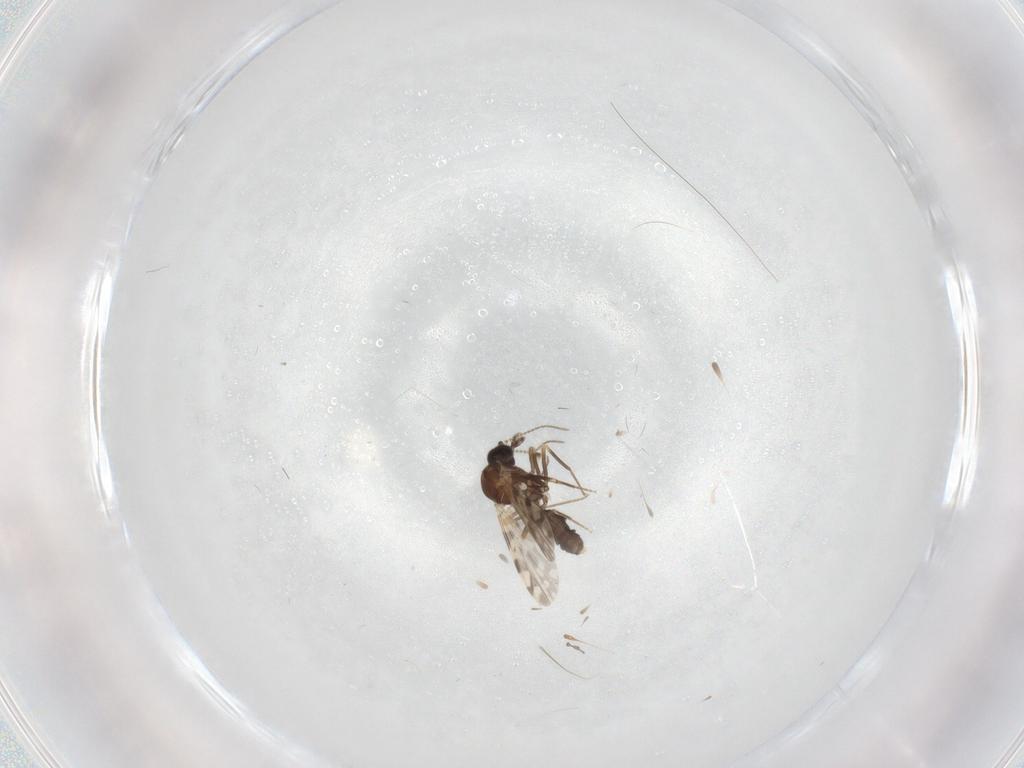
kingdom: Animalia
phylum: Arthropoda
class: Insecta
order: Diptera
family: Ceratopogonidae
